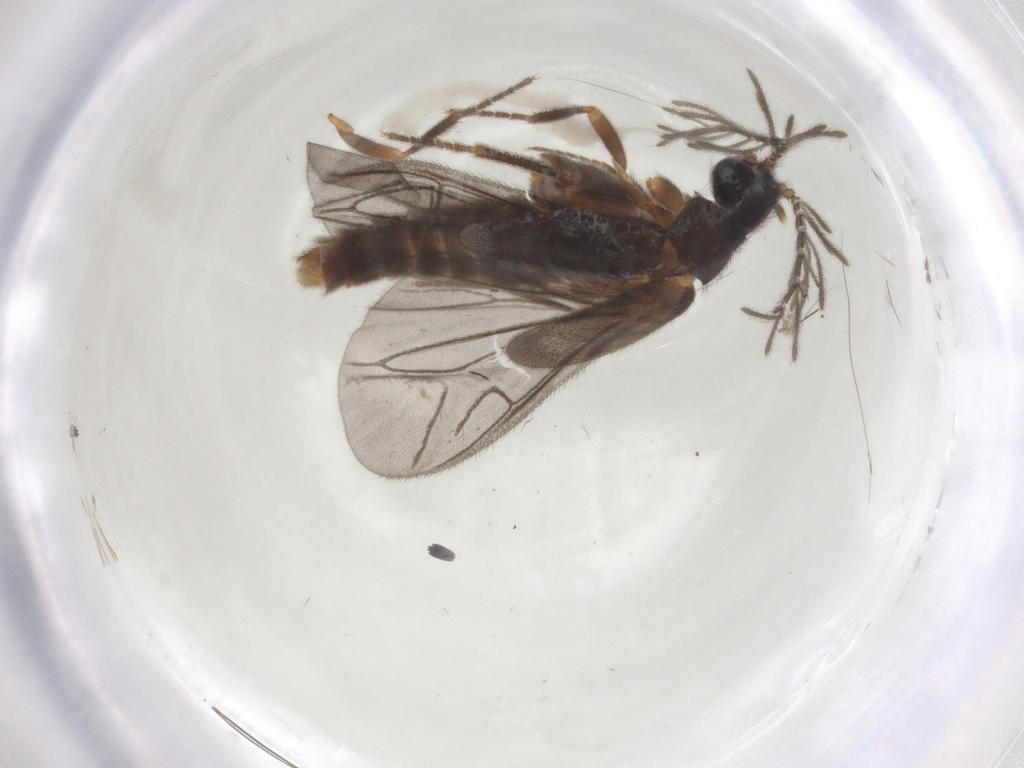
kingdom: Animalia
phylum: Arthropoda
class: Insecta
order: Coleoptera
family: Lampyridae
